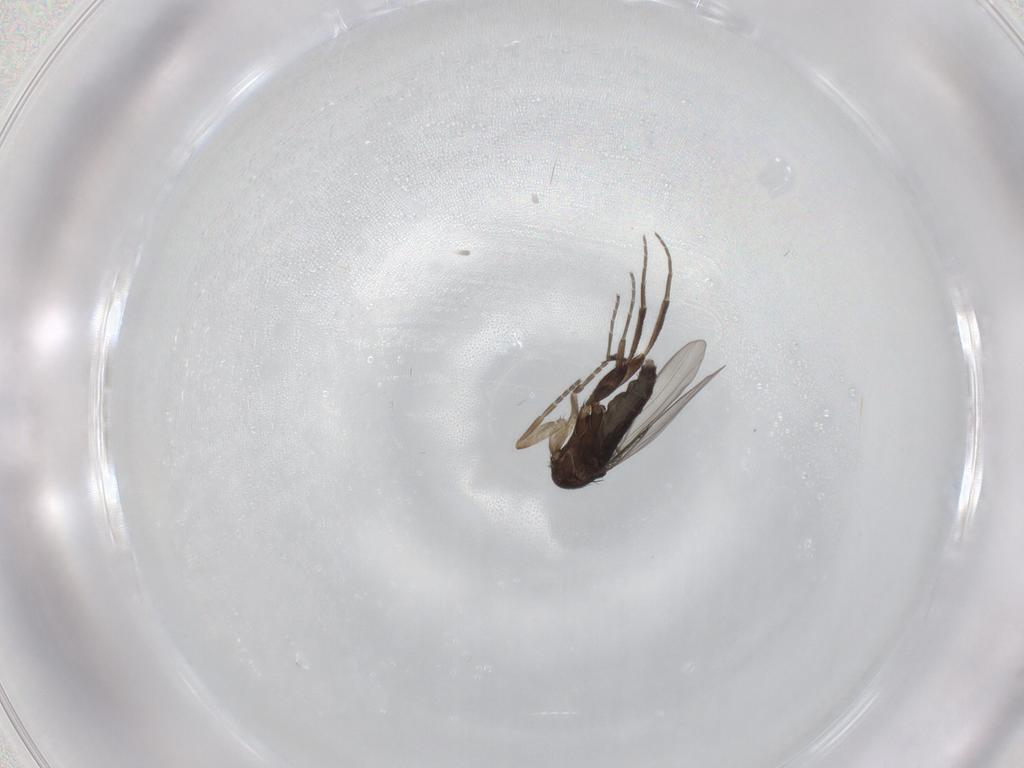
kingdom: Animalia
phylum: Arthropoda
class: Insecta
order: Diptera
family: Phoridae
